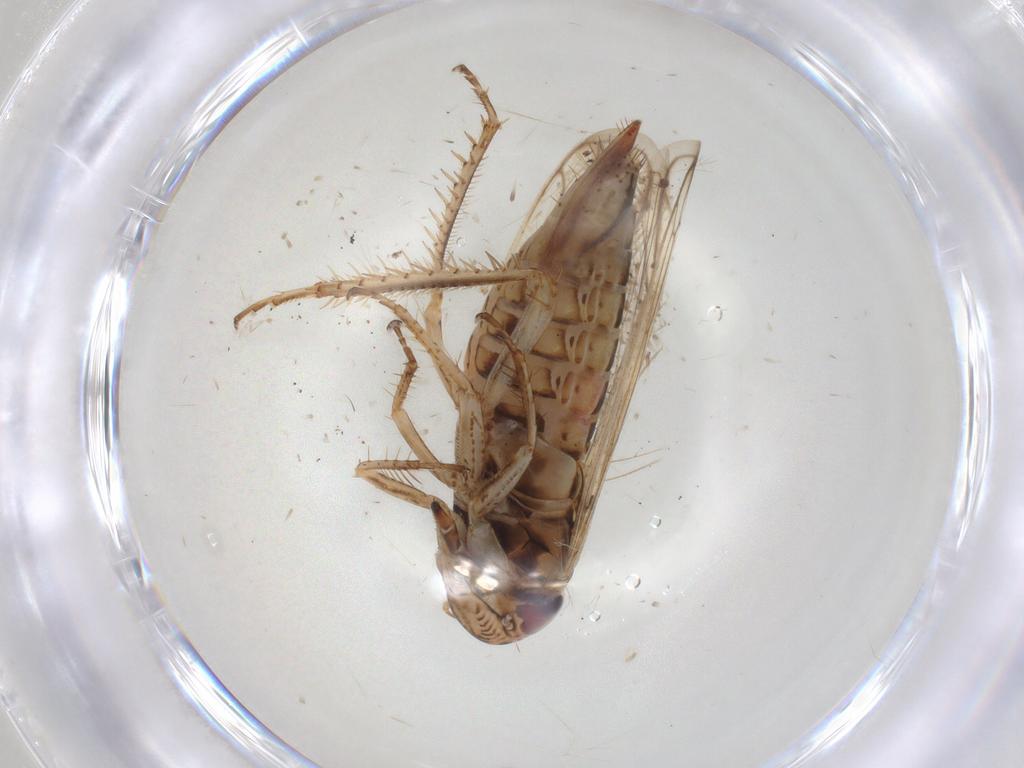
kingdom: Animalia
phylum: Arthropoda
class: Insecta
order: Hemiptera
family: Cicadellidae
